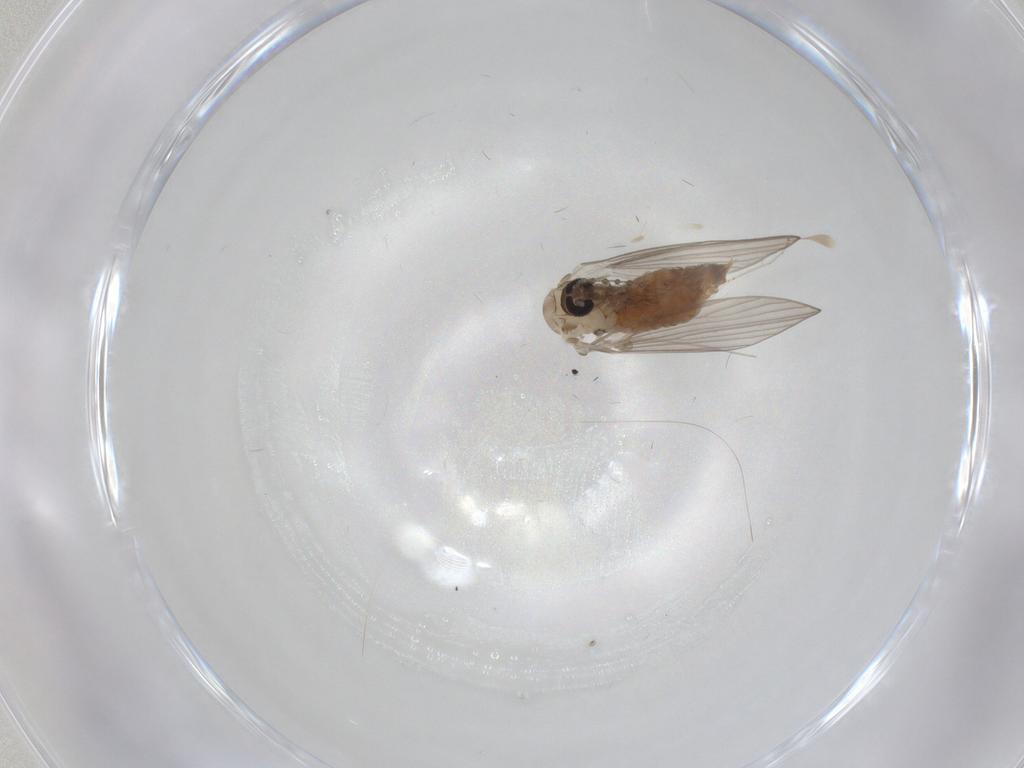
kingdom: Animalia
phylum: Arthropoda
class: Insecta
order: Diptera
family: Psychodidae
